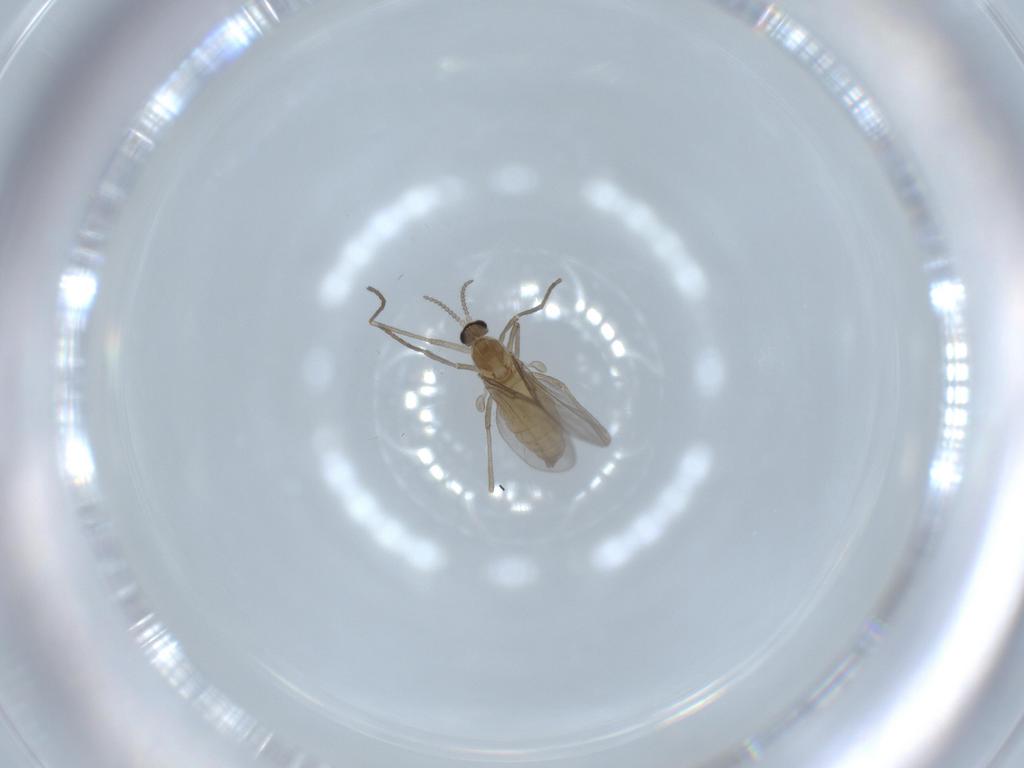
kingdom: Animalia
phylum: Arthropoda
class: Insecta
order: Diptera
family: Cecidomyiidae
